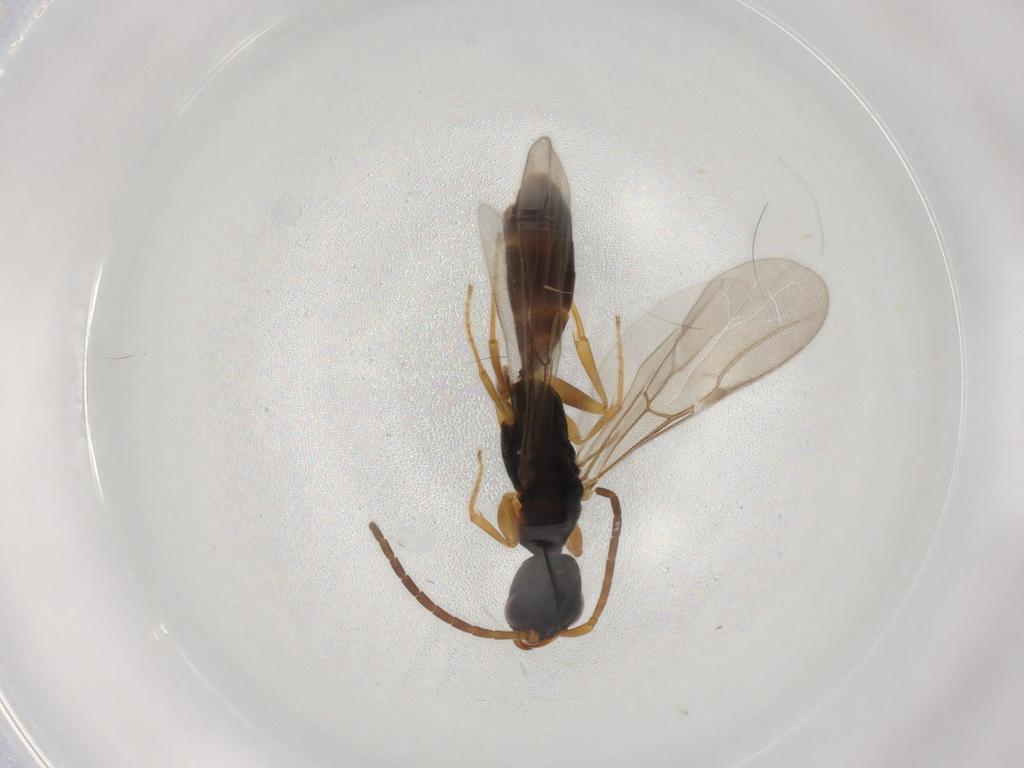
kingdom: Animalia
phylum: Arthropoda
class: Insecta
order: Hymenoptera
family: Bethylidae
